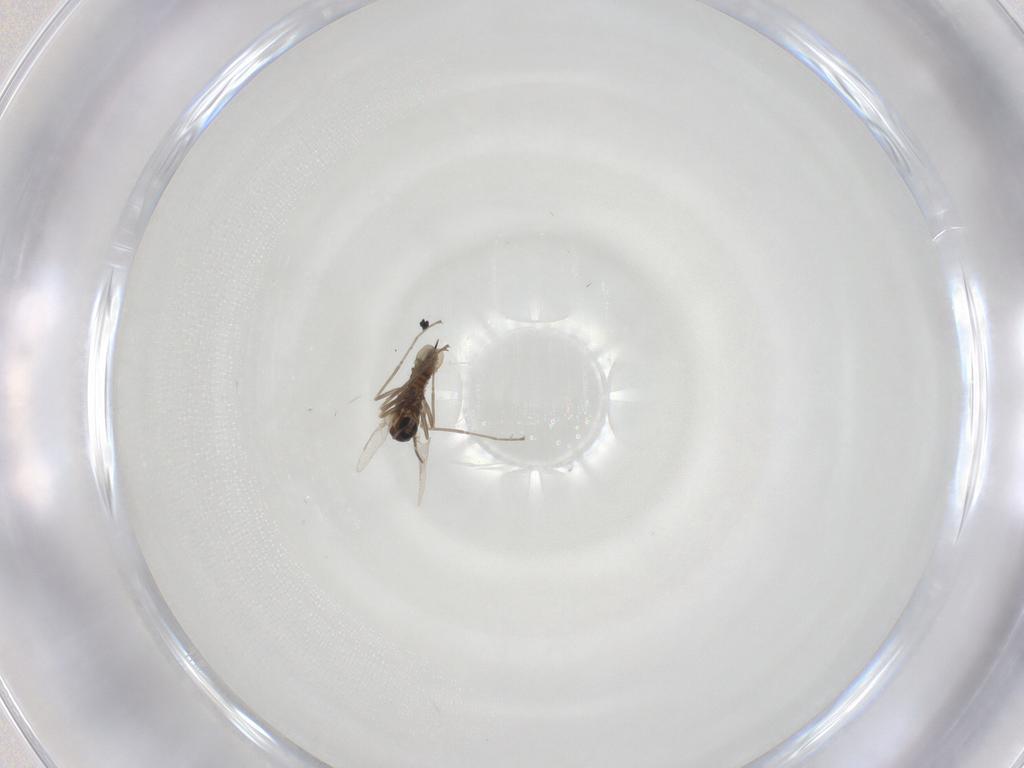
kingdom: Animalia
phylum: Arthropoda
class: Insecta
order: Diptera
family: Cecidomyiidae
